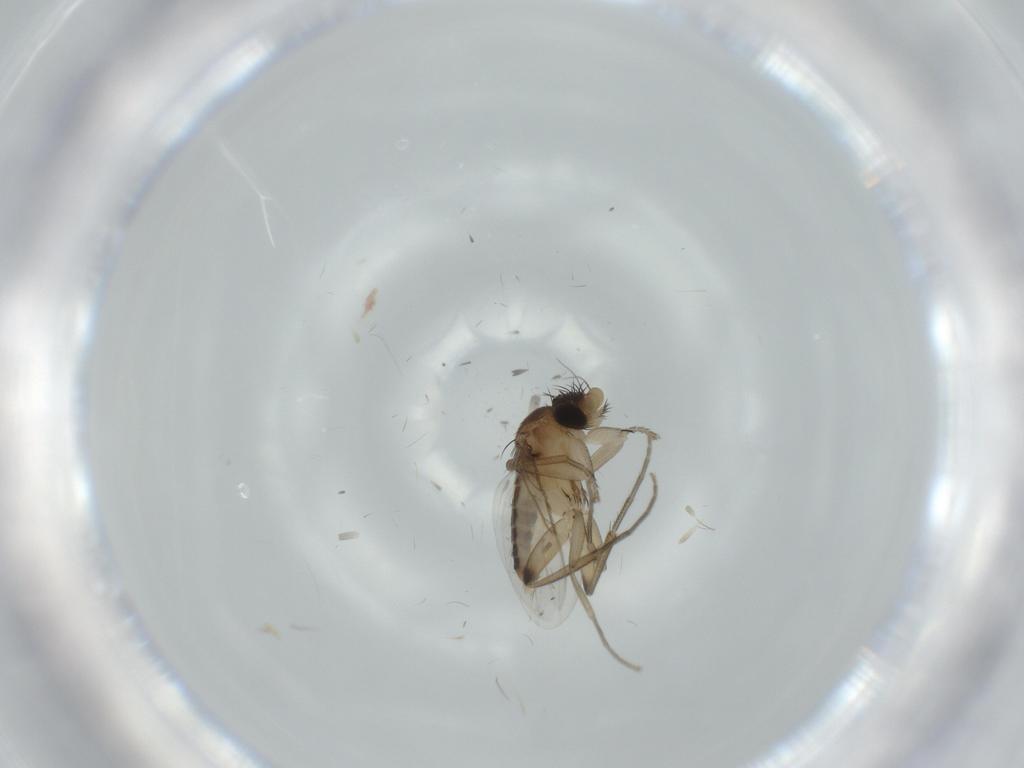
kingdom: Animalia
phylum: Arthropoda
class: Insecta
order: Diptera
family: Phoridae
